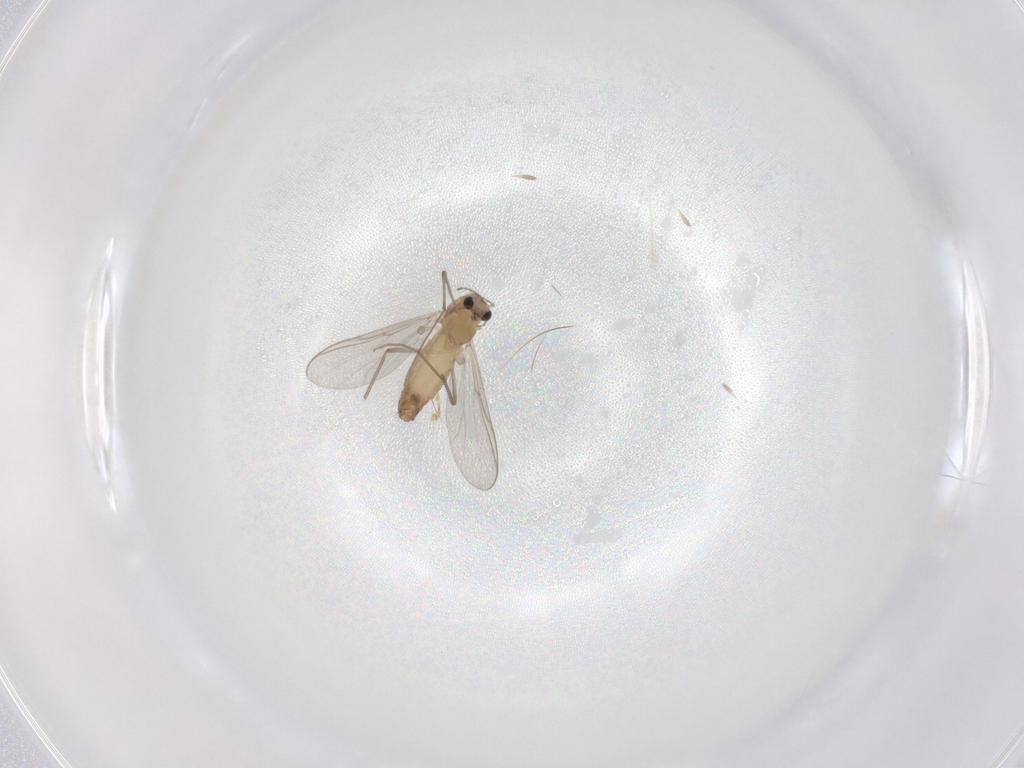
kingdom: Animalia
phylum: Arthropoda
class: Insecta
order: Diptera
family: Chironomidae
